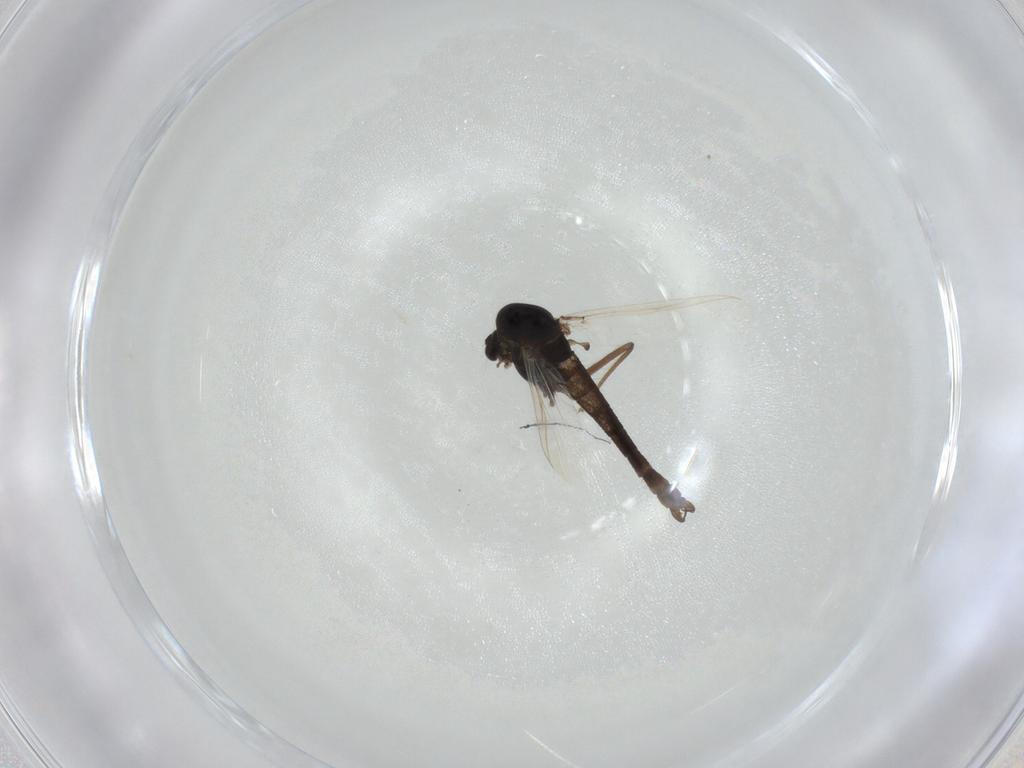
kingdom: Animalia
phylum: Arthropoda
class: Insecta
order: Diptera
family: Chironomidae
